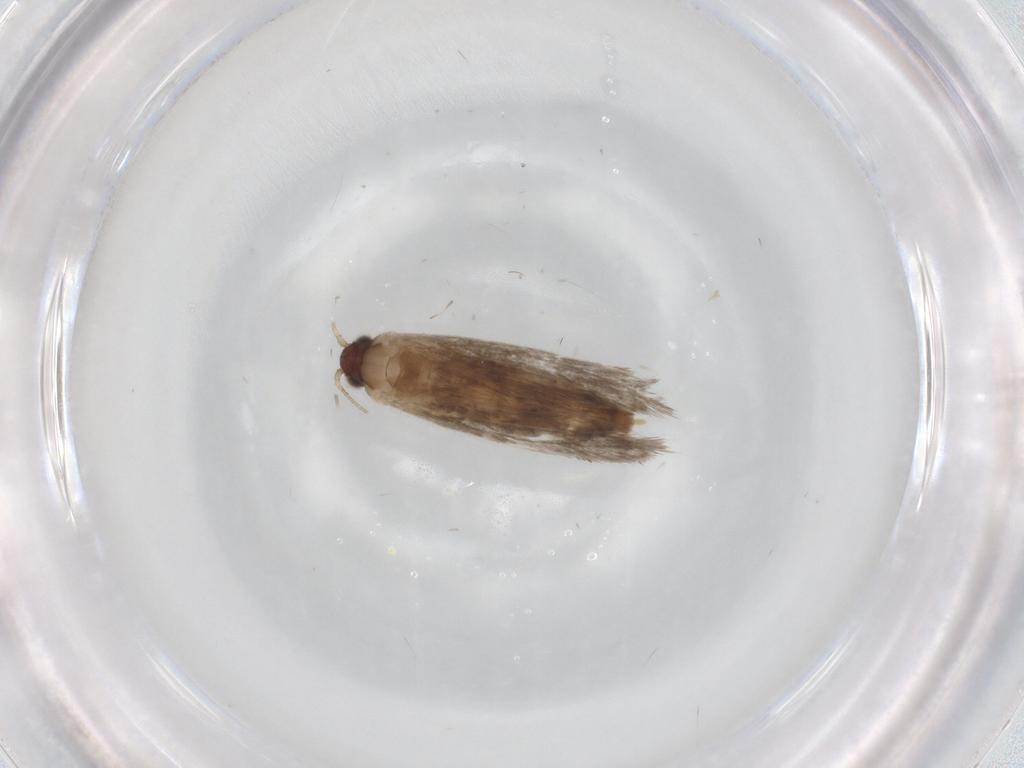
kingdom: Animalia
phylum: Arthropoda
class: Insecta
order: Lepidoptera
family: Tineidae
